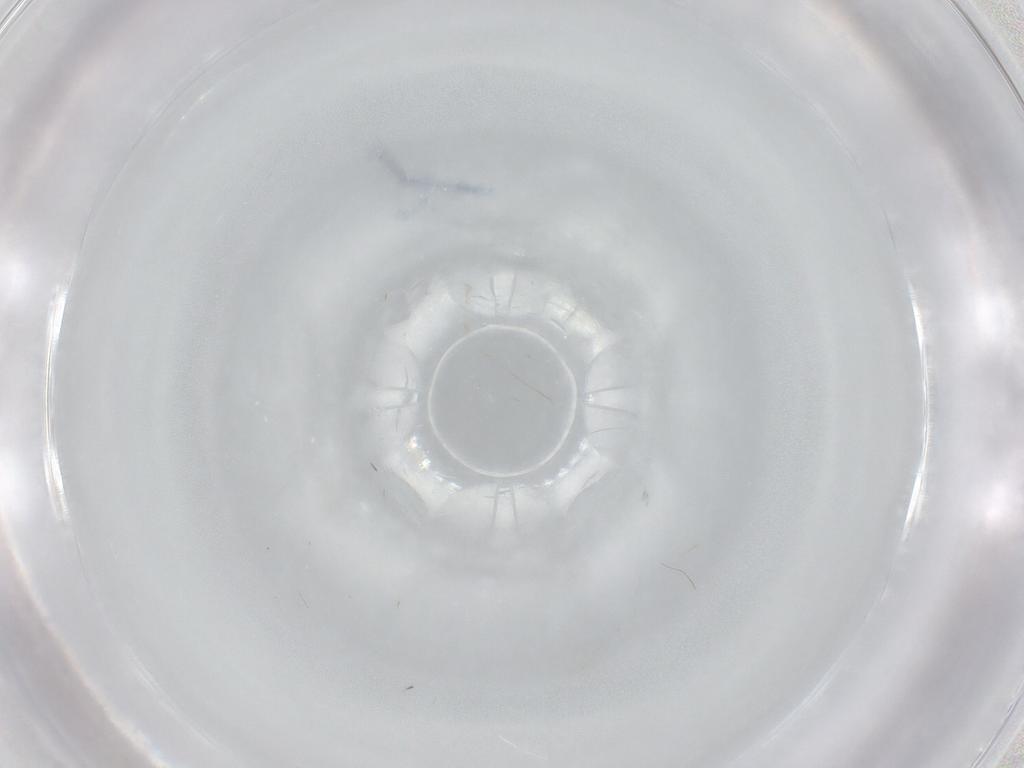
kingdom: Animalia
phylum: Arthropoda
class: Insecta
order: Diptera
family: Cecidomyiidae
